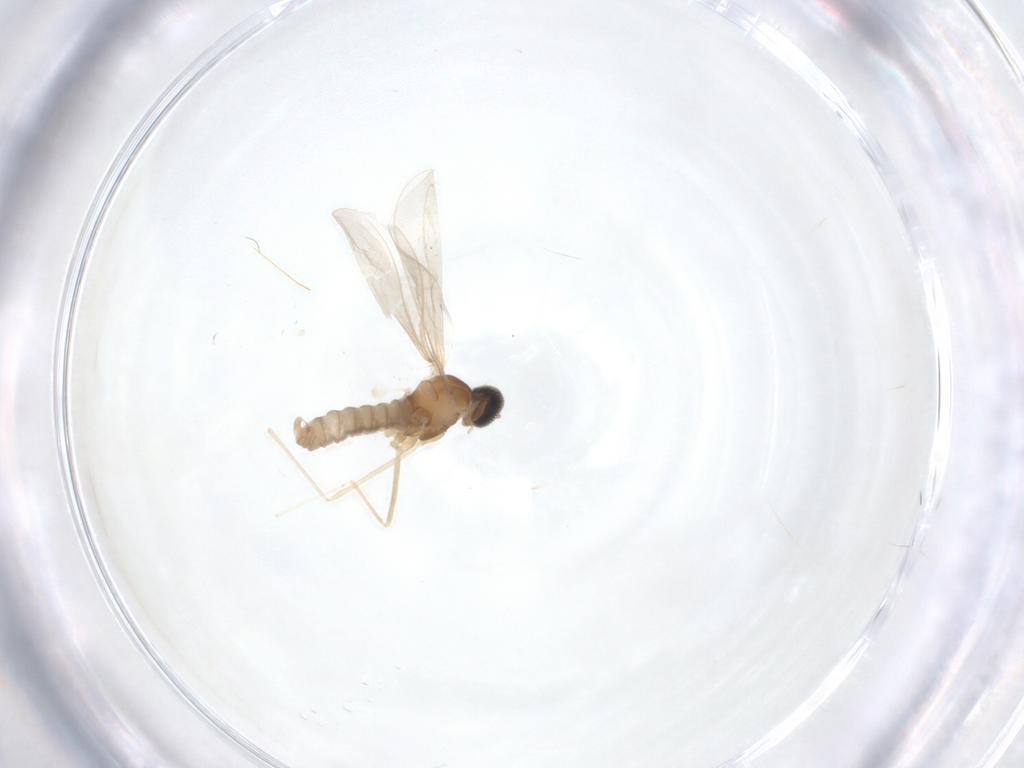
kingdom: Animalia
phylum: Arthropoda
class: Insecta
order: Diptera
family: Cecidomyiidae
